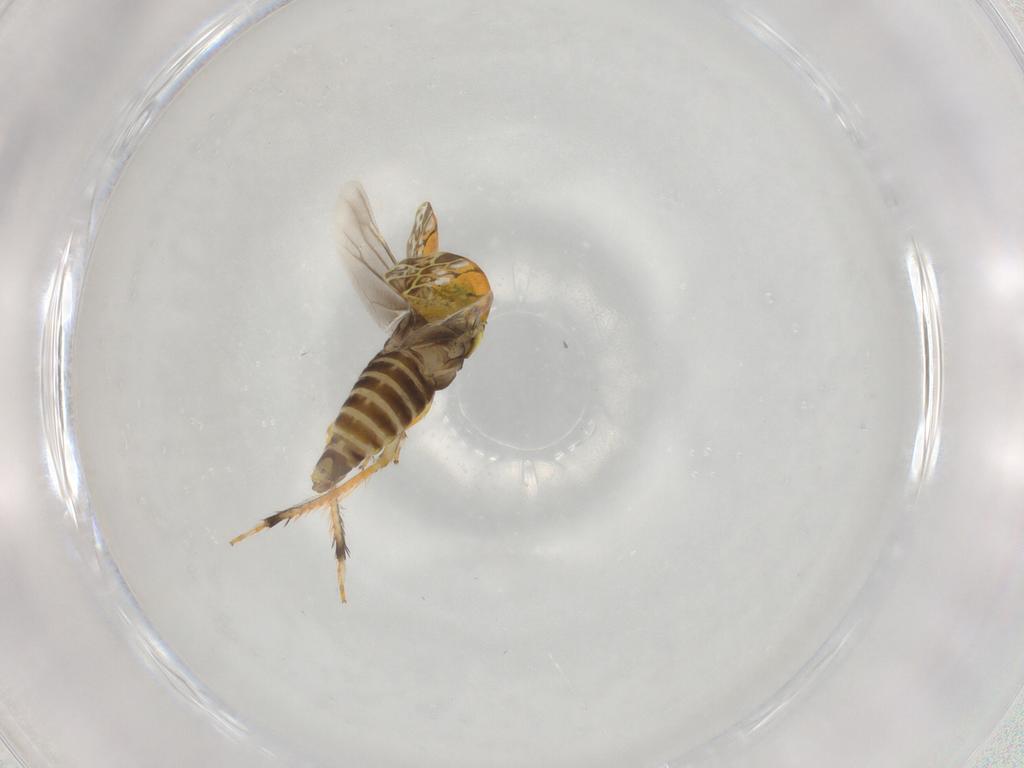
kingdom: Animalia
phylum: Arthropoda
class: Insecta
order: Hemiptera
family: Cicadellidae
